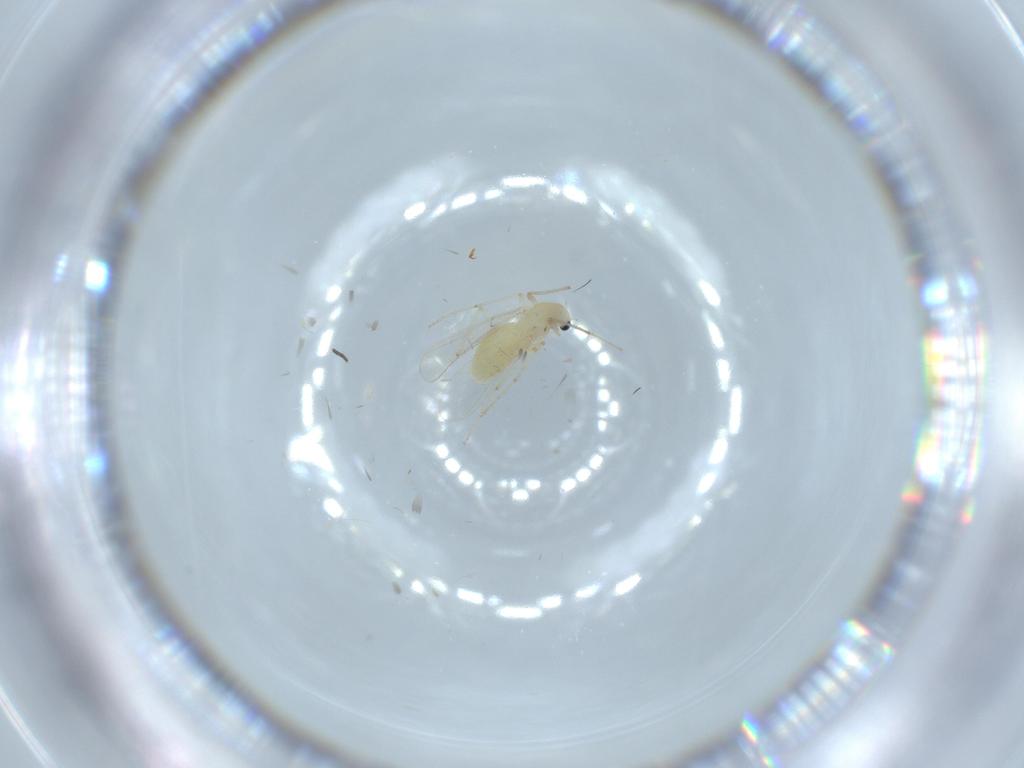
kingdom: Animalia
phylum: Arthropoda
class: Insecta
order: Diptera
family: Chironomidae
